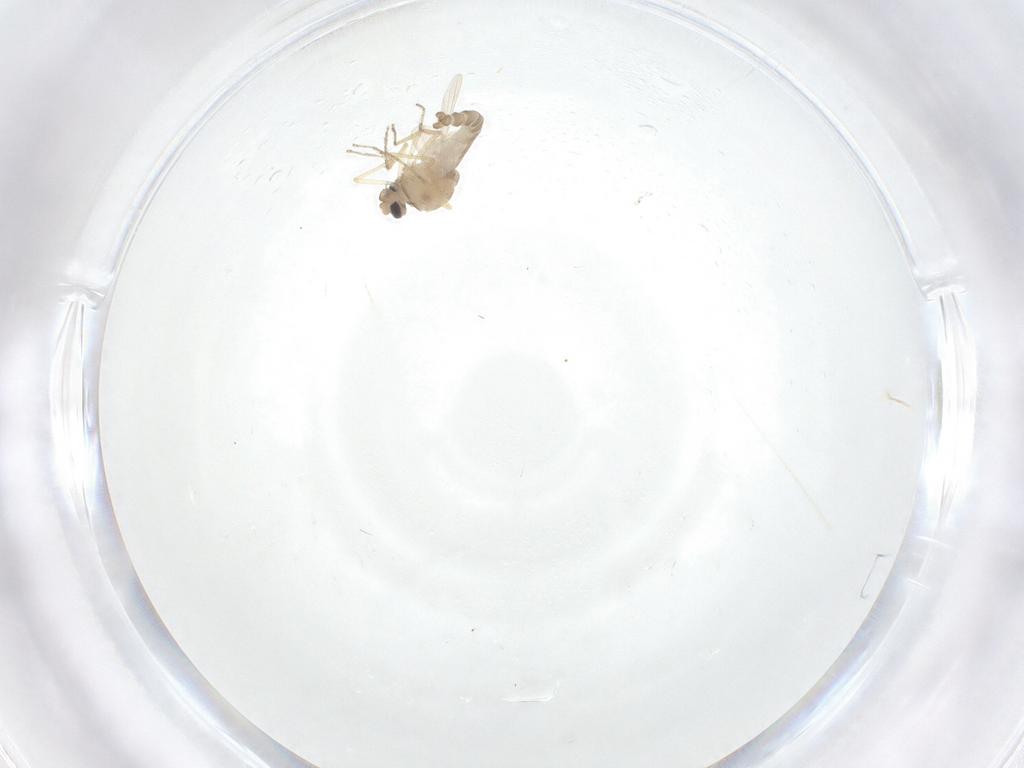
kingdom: Animalia
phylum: Arthropoda
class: Insecta
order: Diptera
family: Ceratopogonidae
